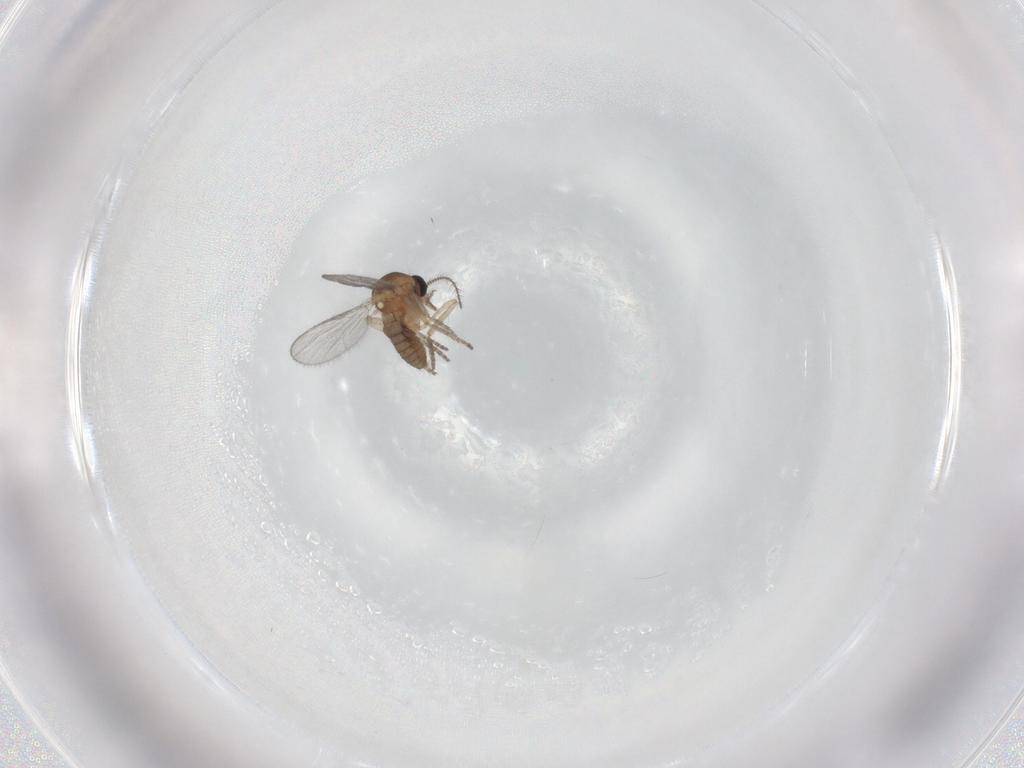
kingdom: Animalia
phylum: Arthropoda
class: Insecta
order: Diptera
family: Ceratopogonidae
